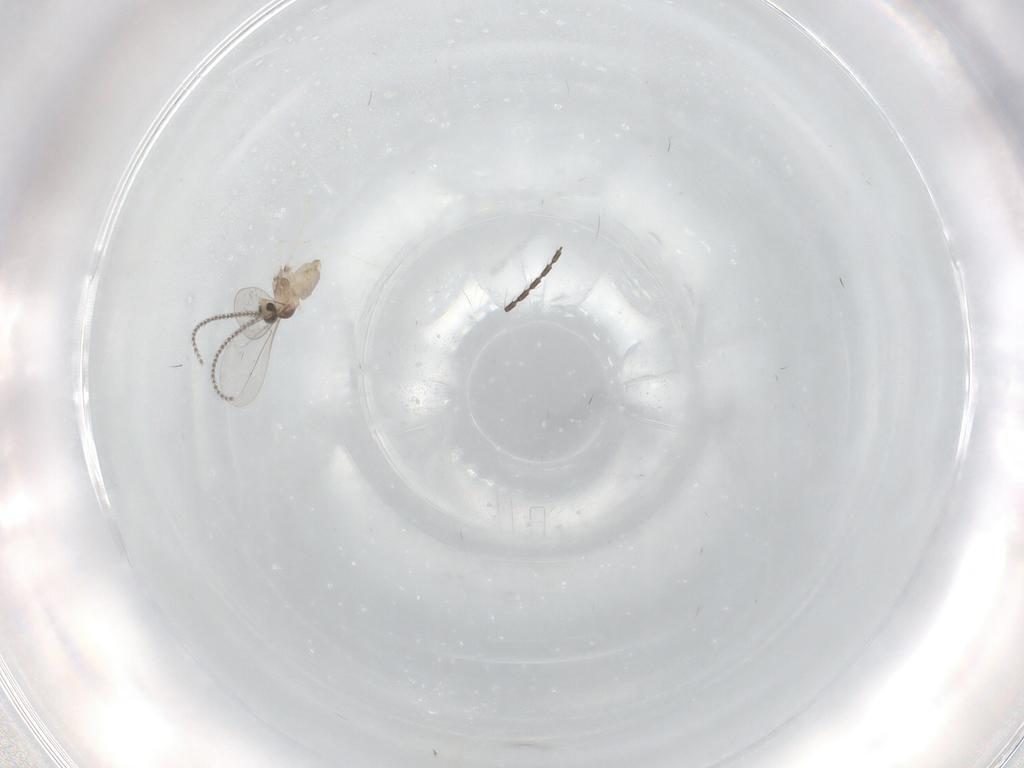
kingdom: Animalia
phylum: Arthropoda
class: Insecta
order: Diptera
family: Cecidomyiidae
